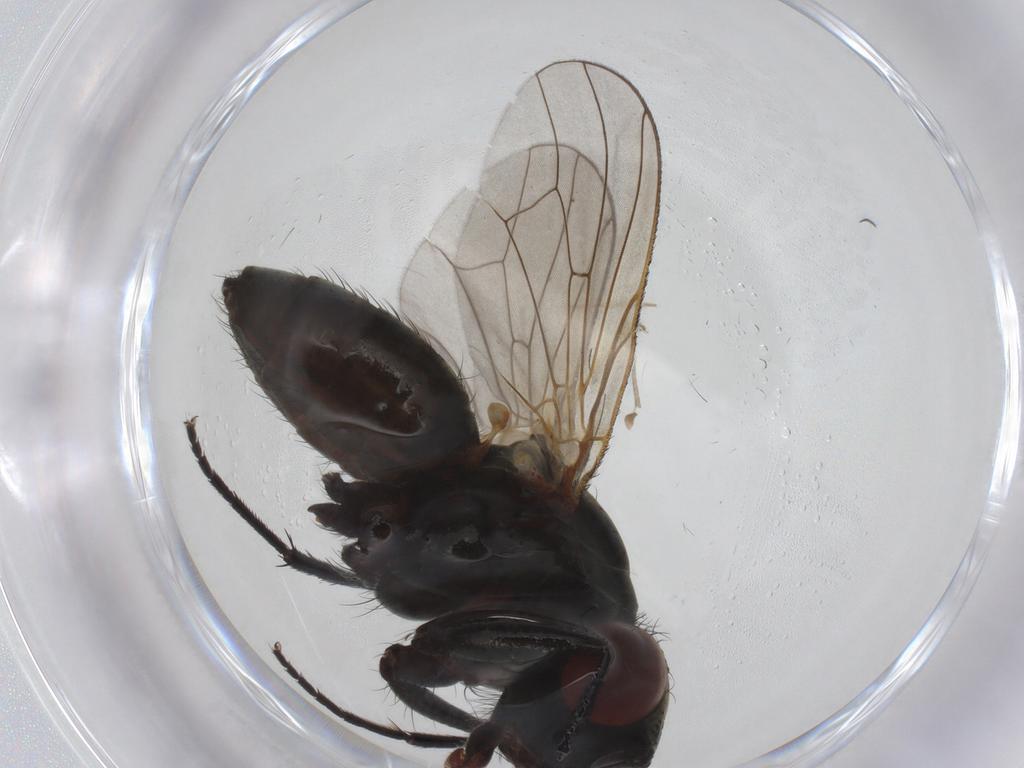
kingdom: Animalia
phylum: Arthropoda
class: Insecta
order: Diptera
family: Sciaridae
